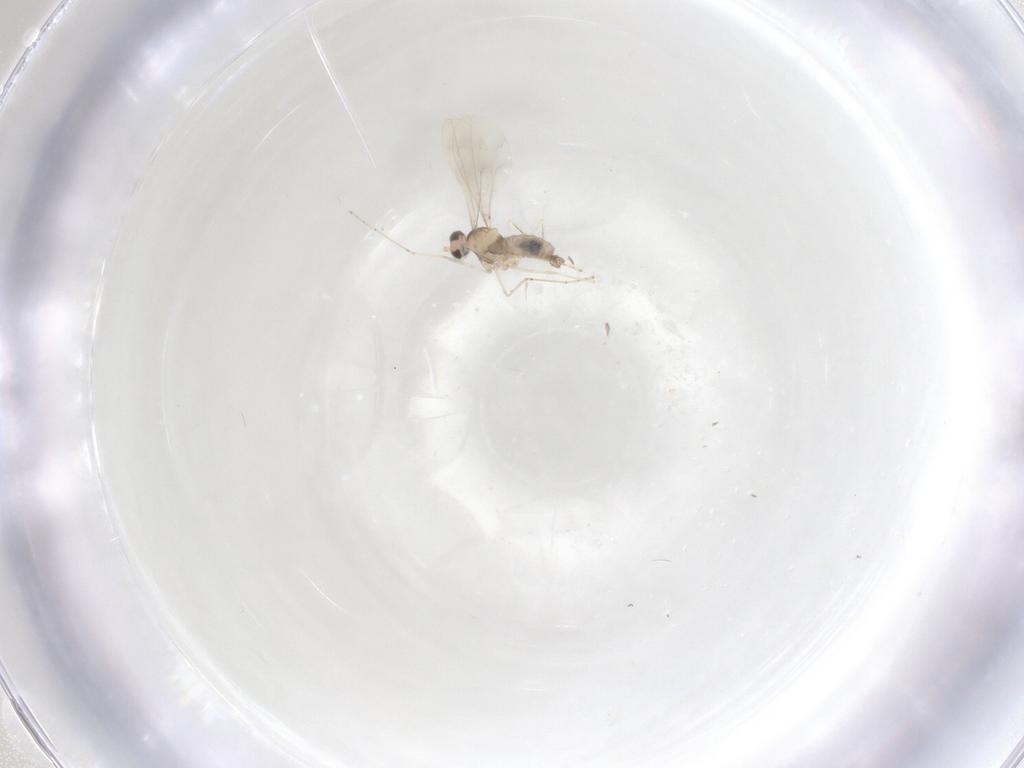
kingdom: Animalia
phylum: Arthropoda
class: Insecta
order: Diptera
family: Cecidomyiidae
